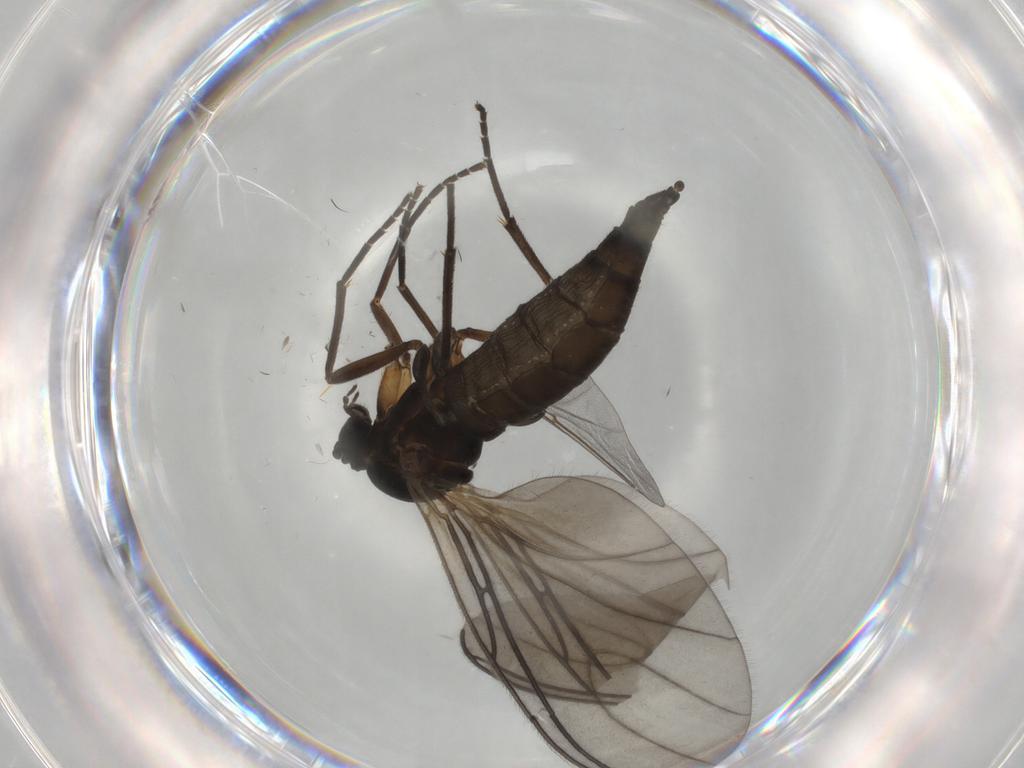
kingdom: Animalia
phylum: Arthropoda
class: Insecta
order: Diptera
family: Sciaridae
